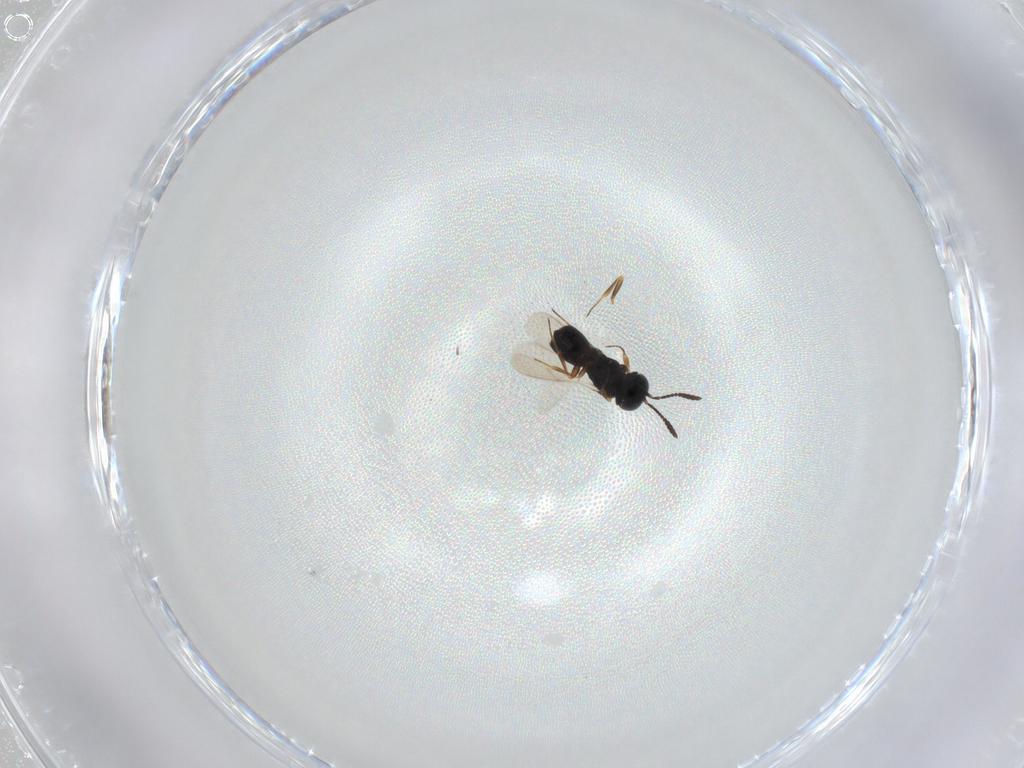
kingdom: Animalia
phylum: Arthropoda
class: Insecta
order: Hymenoptera
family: Scelionidae
